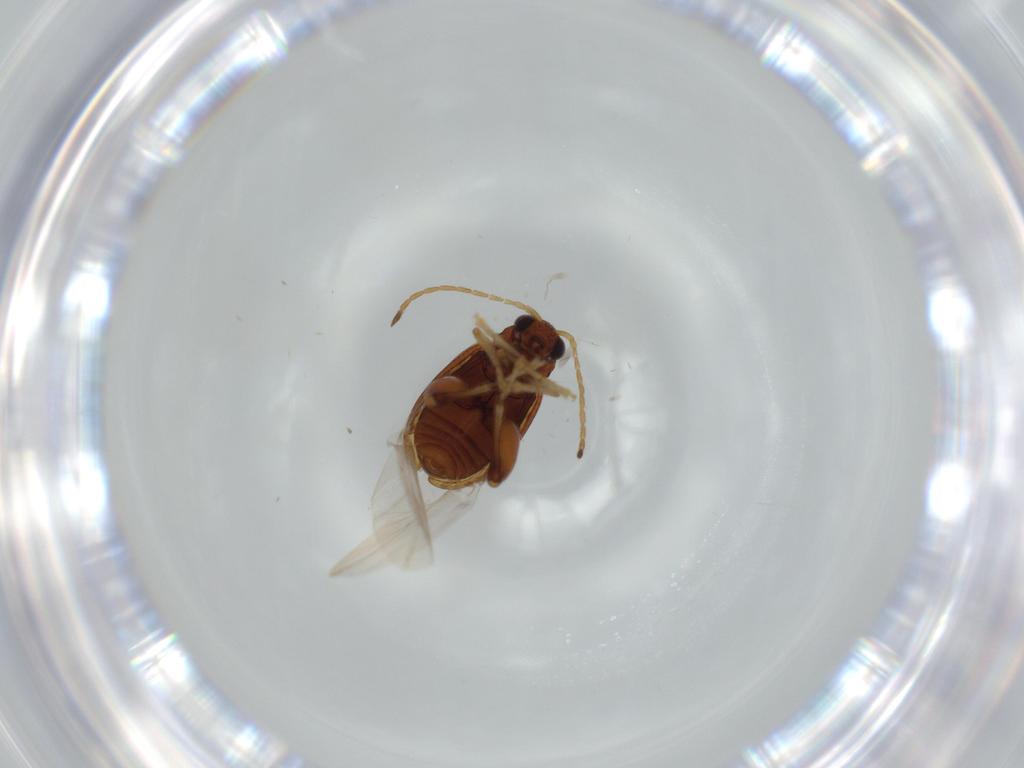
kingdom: Animalia
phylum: Arthropoda
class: Insecta
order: Coleoptera
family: Chrysomelidae
